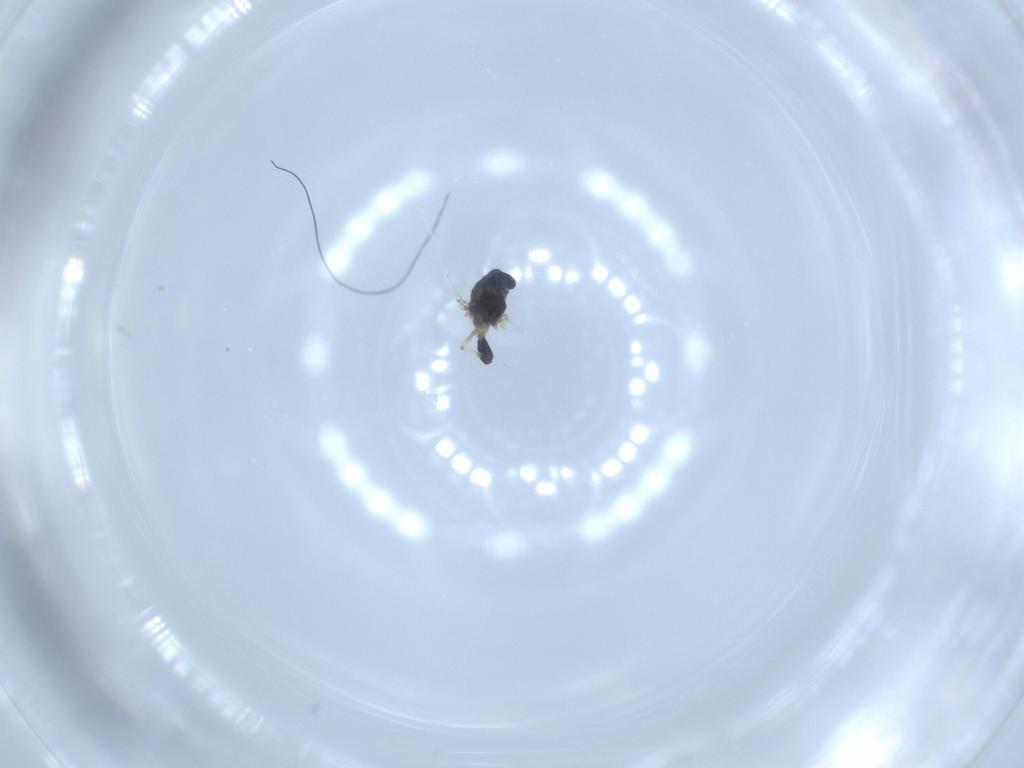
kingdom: Animalia
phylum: Arthropoda
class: Insecta
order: Diptera
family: Chironomidae
